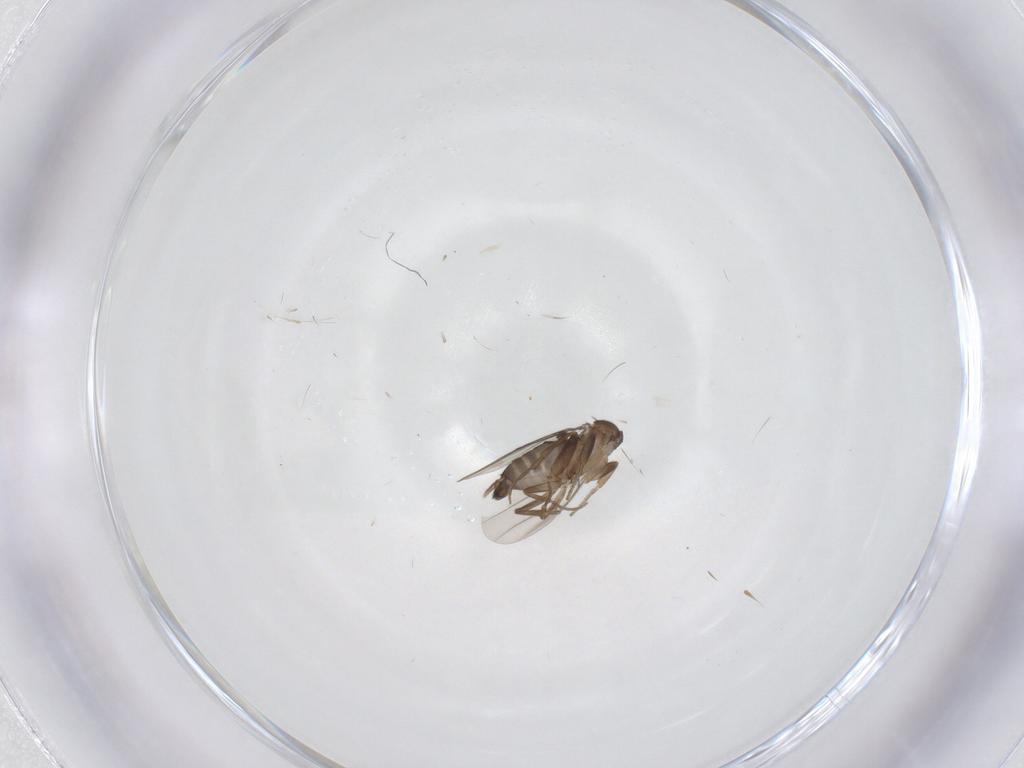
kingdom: Animalia
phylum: Arthropoda
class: Insecta
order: Diptera
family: Phoridae
